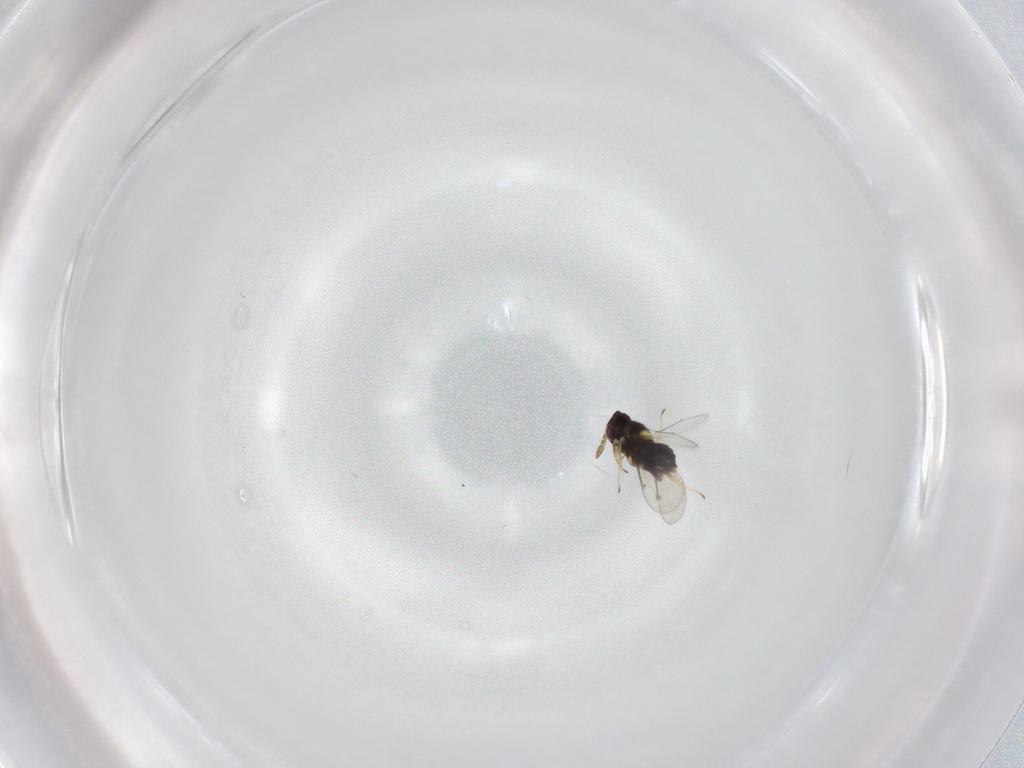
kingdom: Animalia
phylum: Arthropoda
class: Insecta
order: Hymenoptera
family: Aphelinidae
